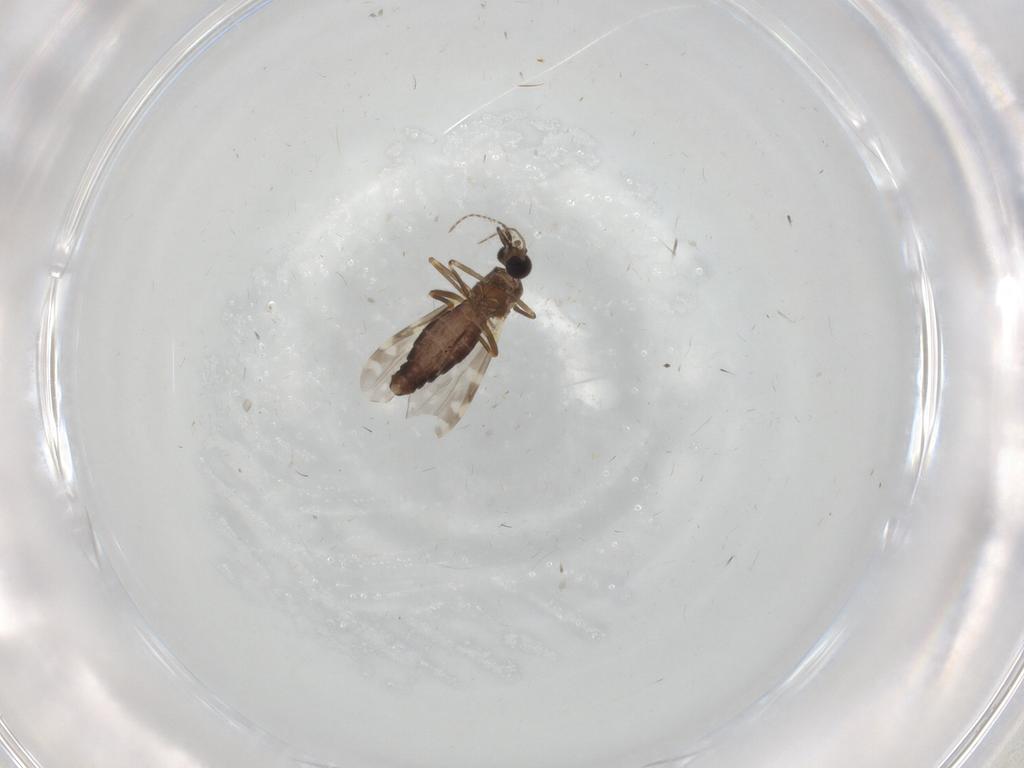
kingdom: Animalia
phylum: Arthropoda
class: Insecta
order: Diptera
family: Ceratopogonidae
